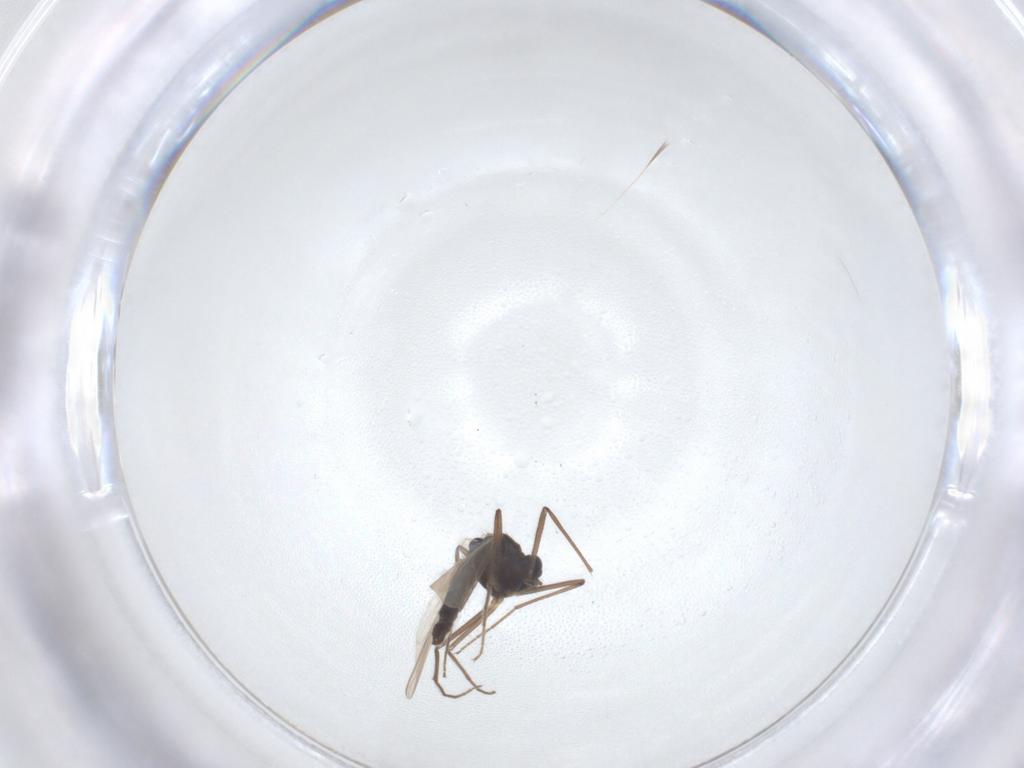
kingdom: Animalia
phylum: Arthropoda
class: Insecta
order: Diptera
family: Chironomidae
